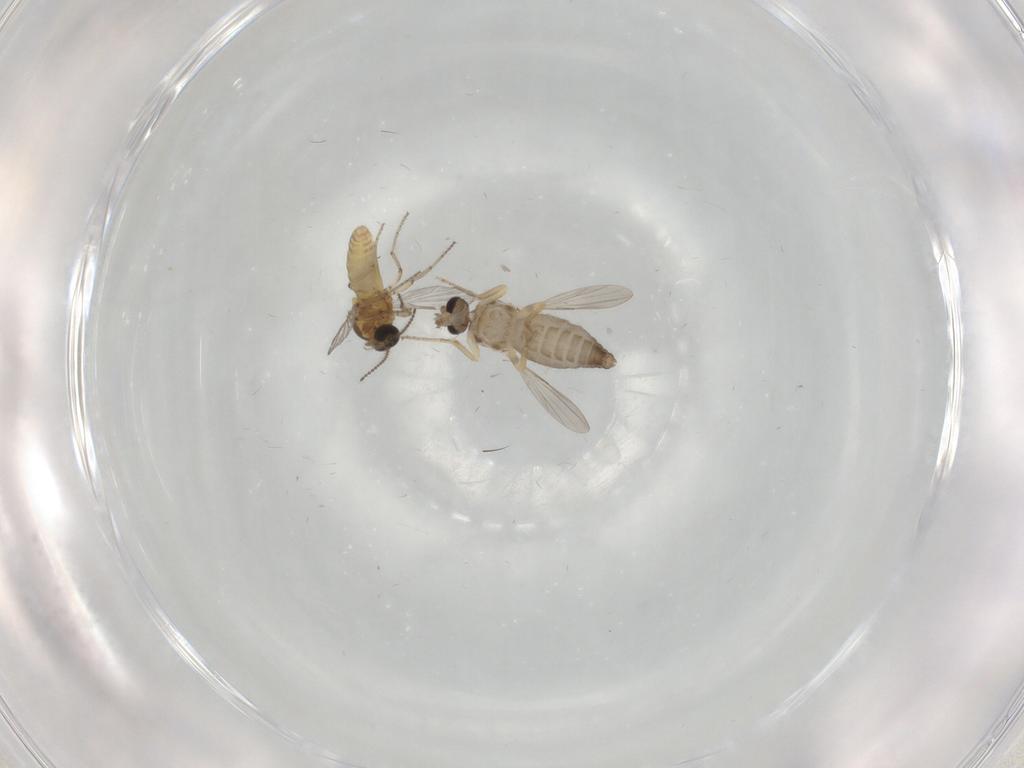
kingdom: Animalia
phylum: Arthropoda
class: Insecta
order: Diptera
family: Ceratopogonidae
